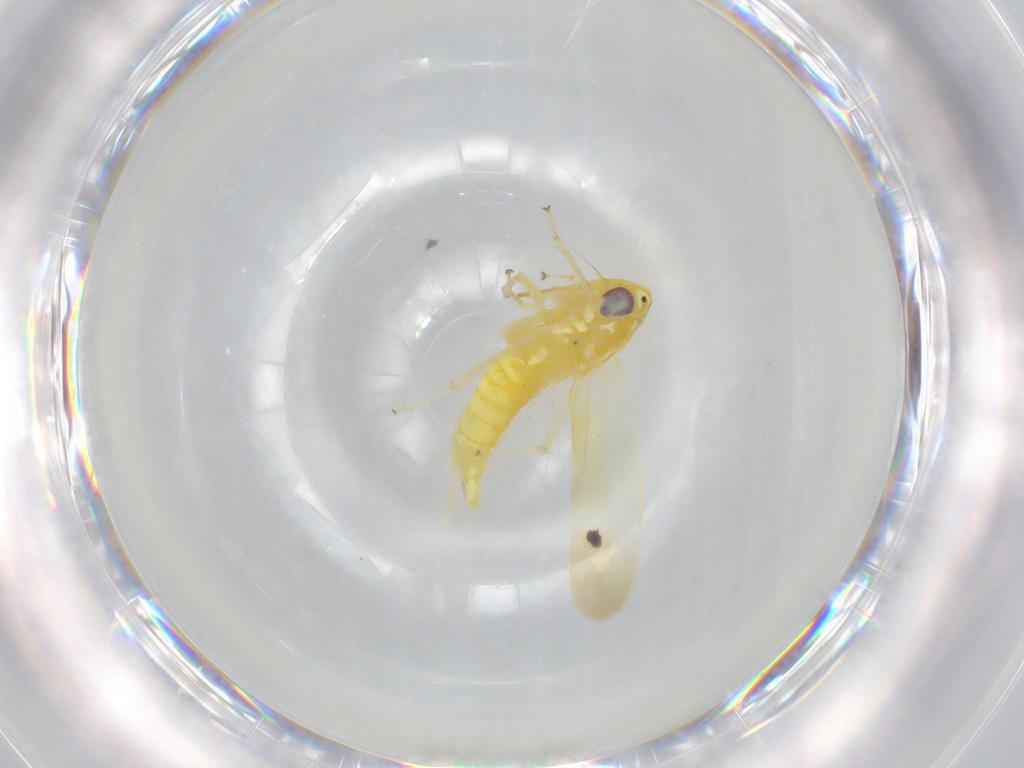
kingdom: Animalia
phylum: Arthropoda
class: Insecta
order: Hemiptera
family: Cicadellidae
